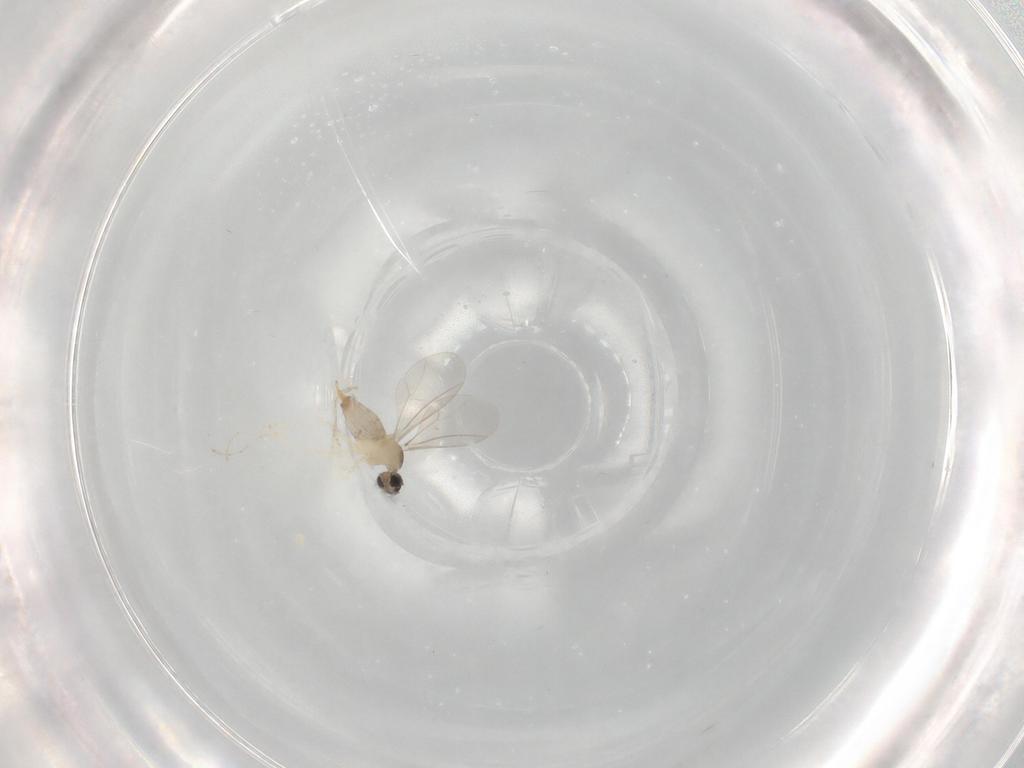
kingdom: Animalia
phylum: Arthropoda
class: Insecta
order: Diptera
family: Cecidomyiidae
